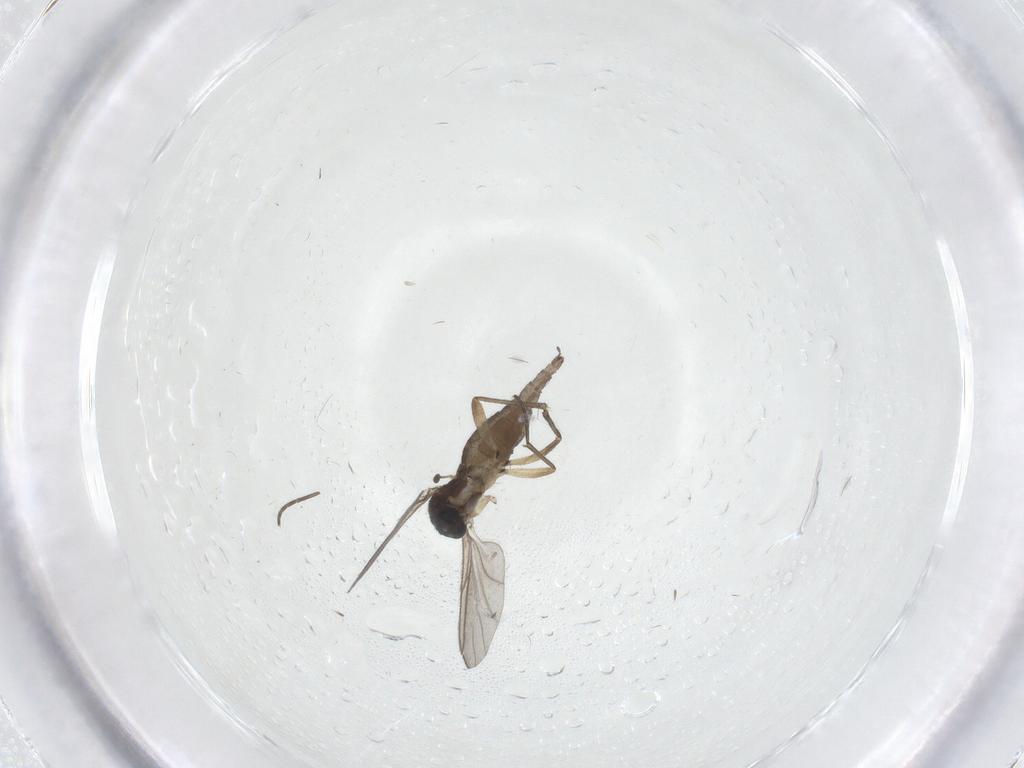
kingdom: Animalia
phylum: Arthropoda
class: Insecta
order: Diptera
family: Sciaridae
